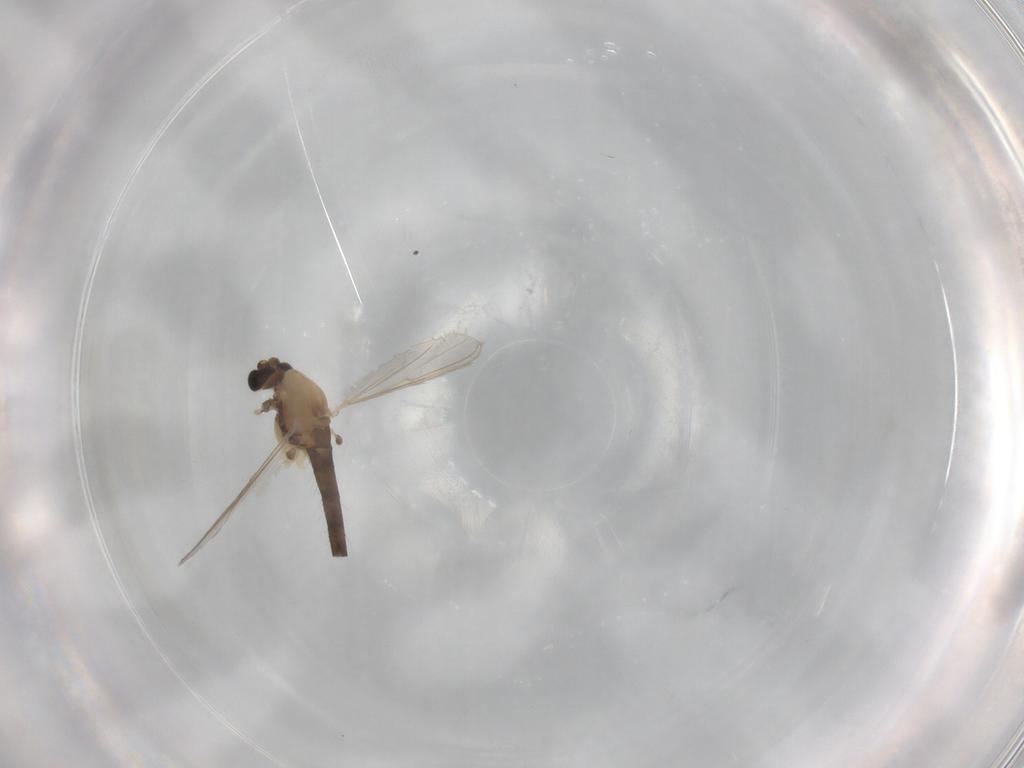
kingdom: Animalia
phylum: Arthropoda
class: Insecta
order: Diptera
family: Chironomidae
